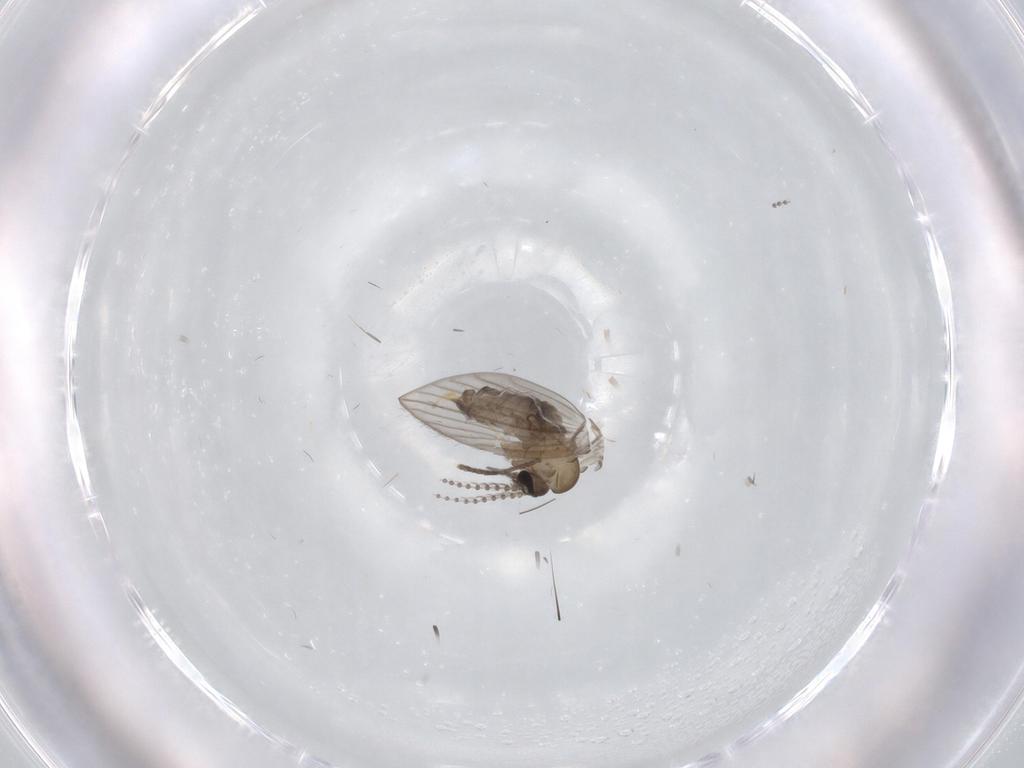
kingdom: Animalia
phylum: Arthropoda
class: Insecta
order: Diptera
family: Psychodidae
